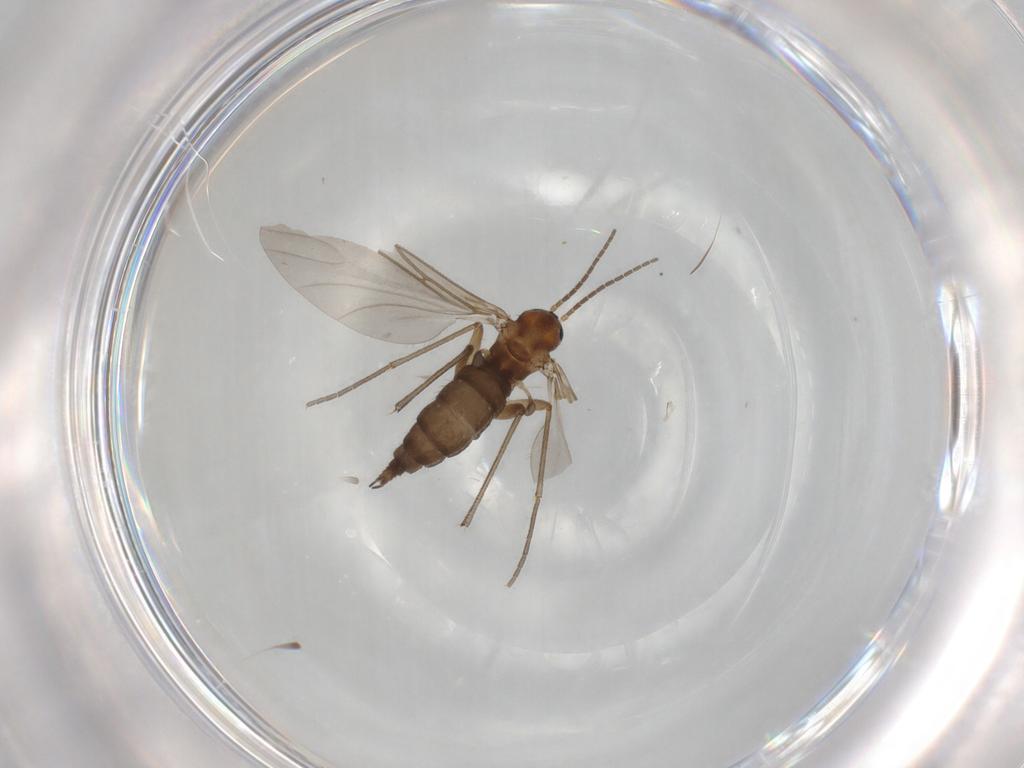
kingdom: Animalia
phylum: Arthropoda
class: Insecta
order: Diptera
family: Sciaridae
